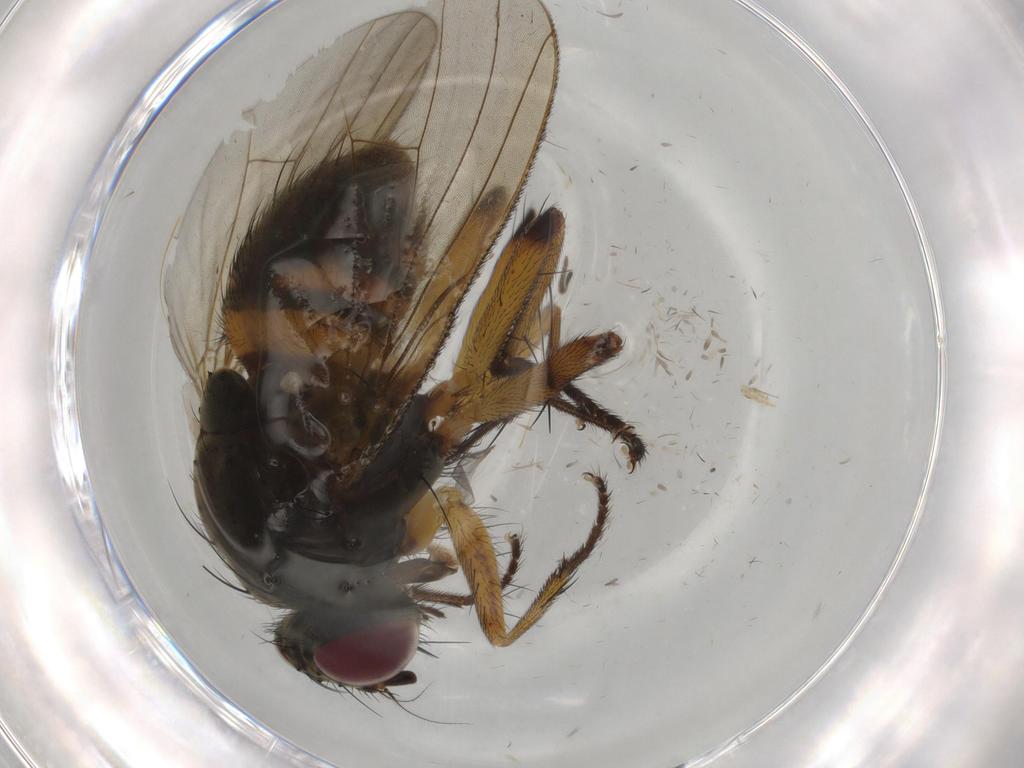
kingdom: Animalia
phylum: Arthropoda
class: Insecta
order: Diptera
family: Muscidae
